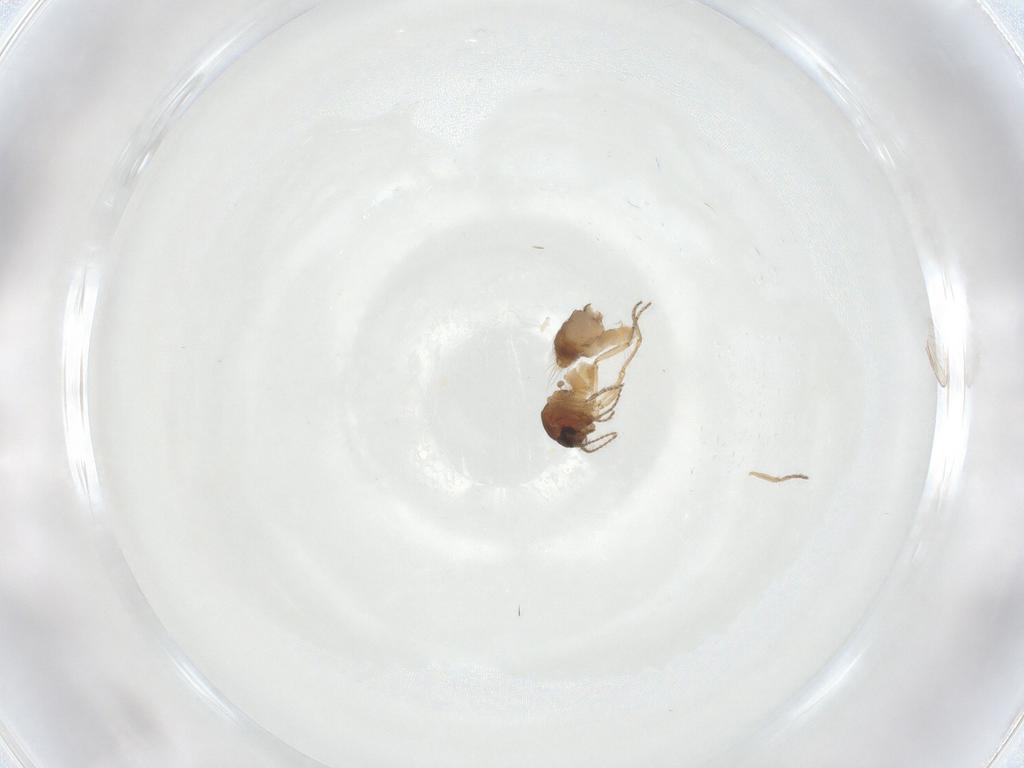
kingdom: Animalia
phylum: Arthropoda
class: Insecta
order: Diptera
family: Ceratopogonidae
